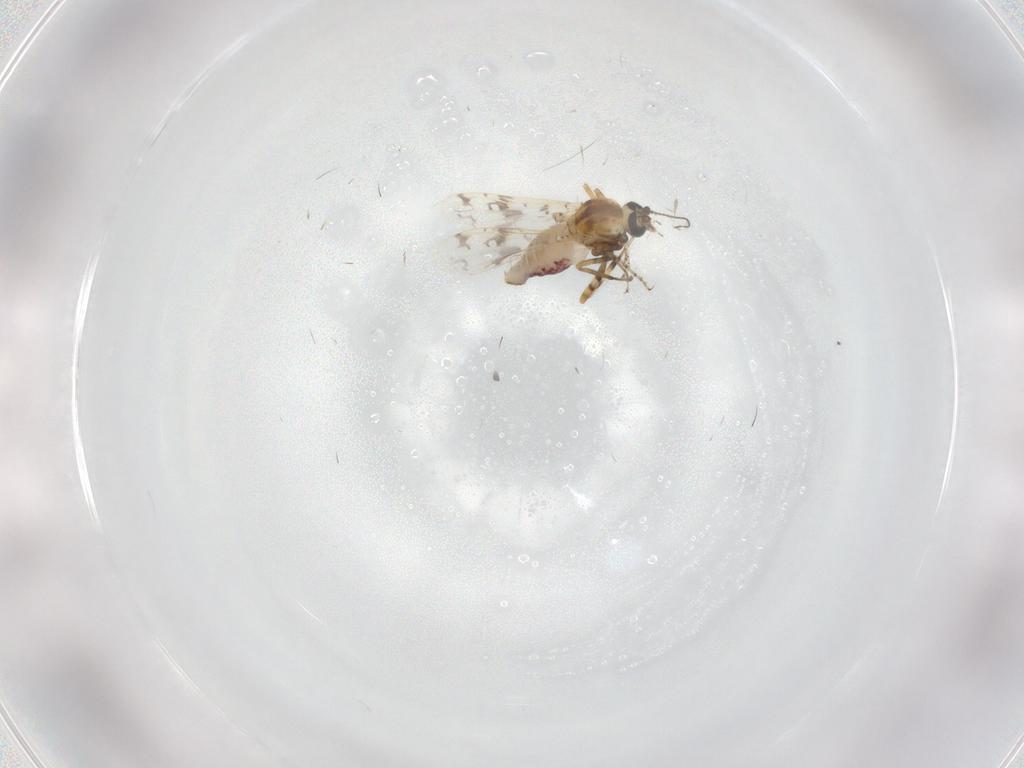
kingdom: Animalia
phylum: Arthropoda
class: Insecta
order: Diptera
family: Ceratopogonidae
